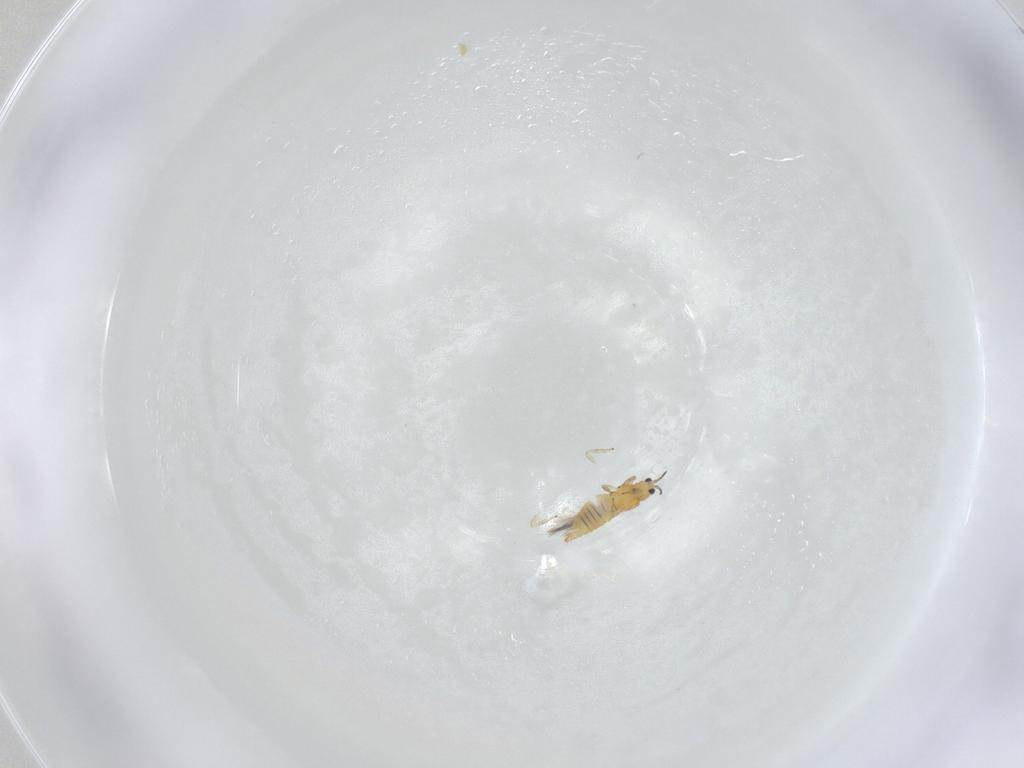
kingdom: Animalia
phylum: Arthropoda
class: Insecta
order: Thysanoptera
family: Thripidae
